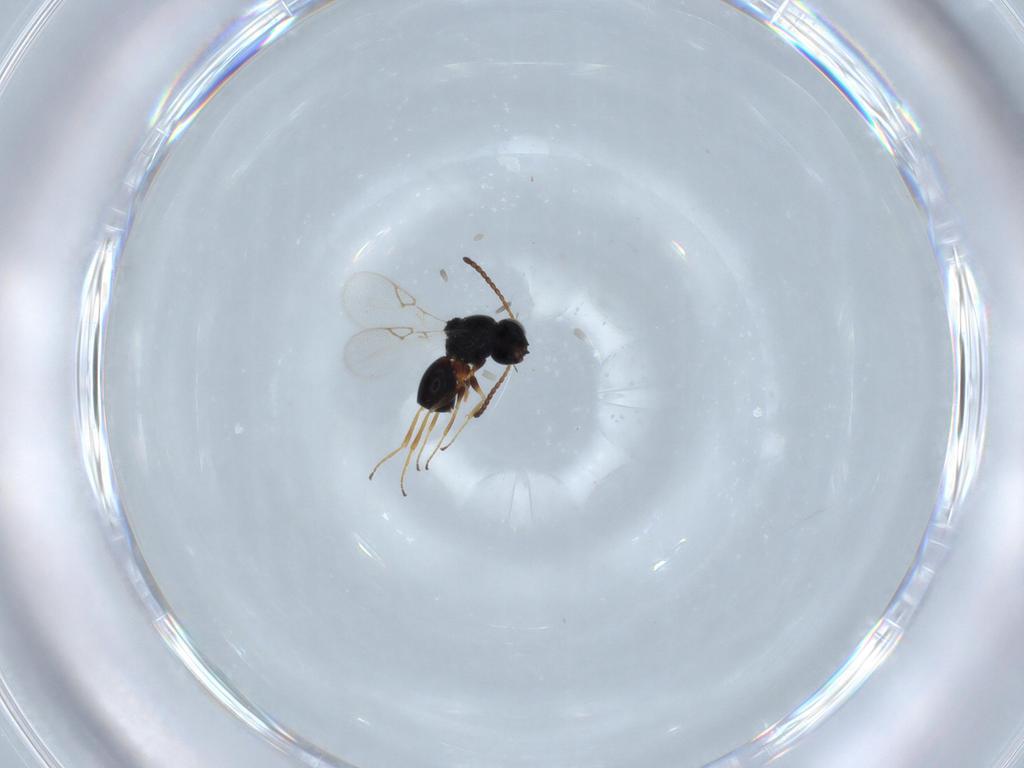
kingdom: Animalia
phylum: Arthropoda
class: Insecta
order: Hymenoptera
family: Figitidae
